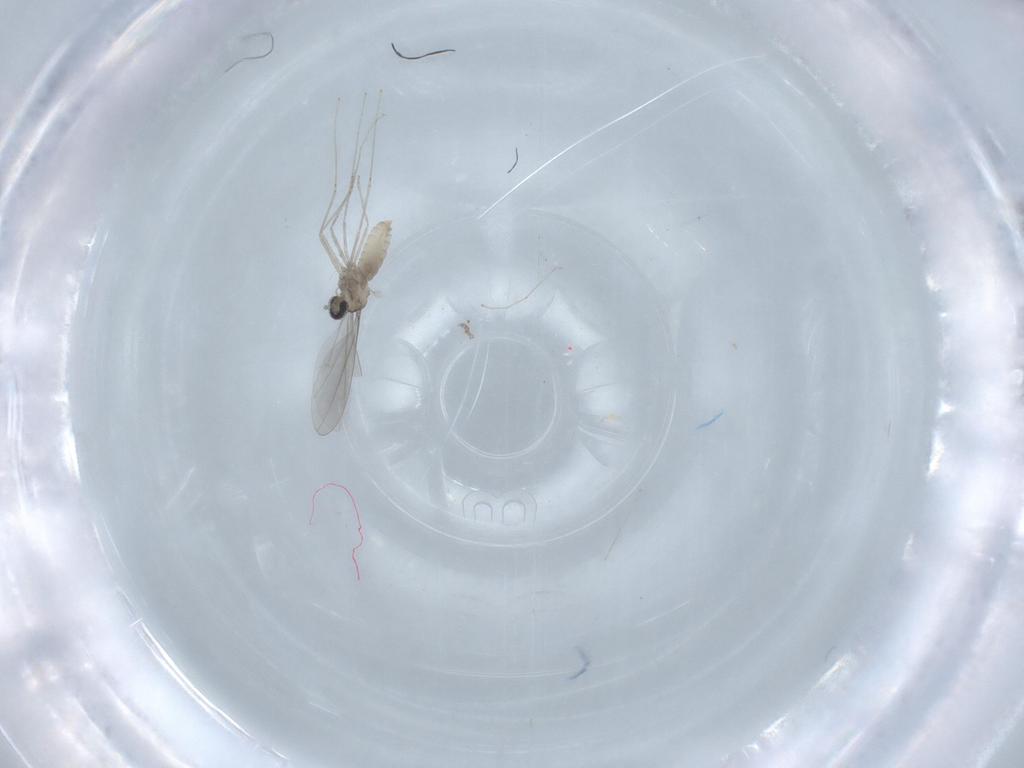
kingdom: Animalia
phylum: Arthropoda
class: Insecta
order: Diptera
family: Cecidomyiidae
